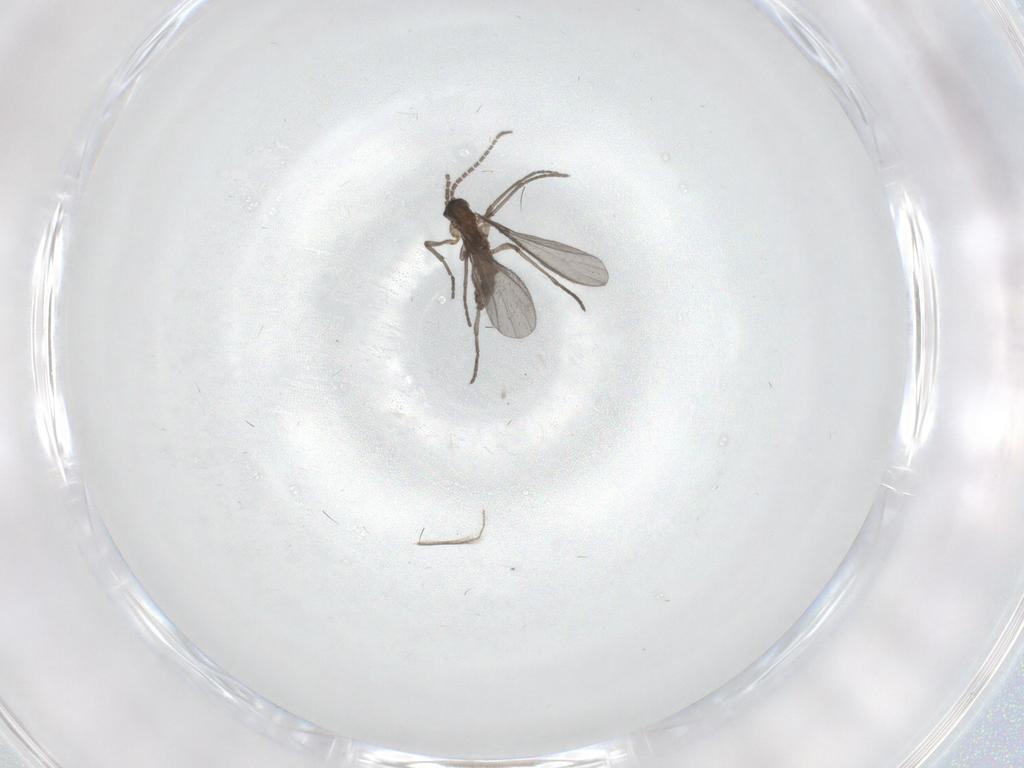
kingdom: Animalia
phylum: Arthropoda
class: Insecta
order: Diptera
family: Sciaridae
